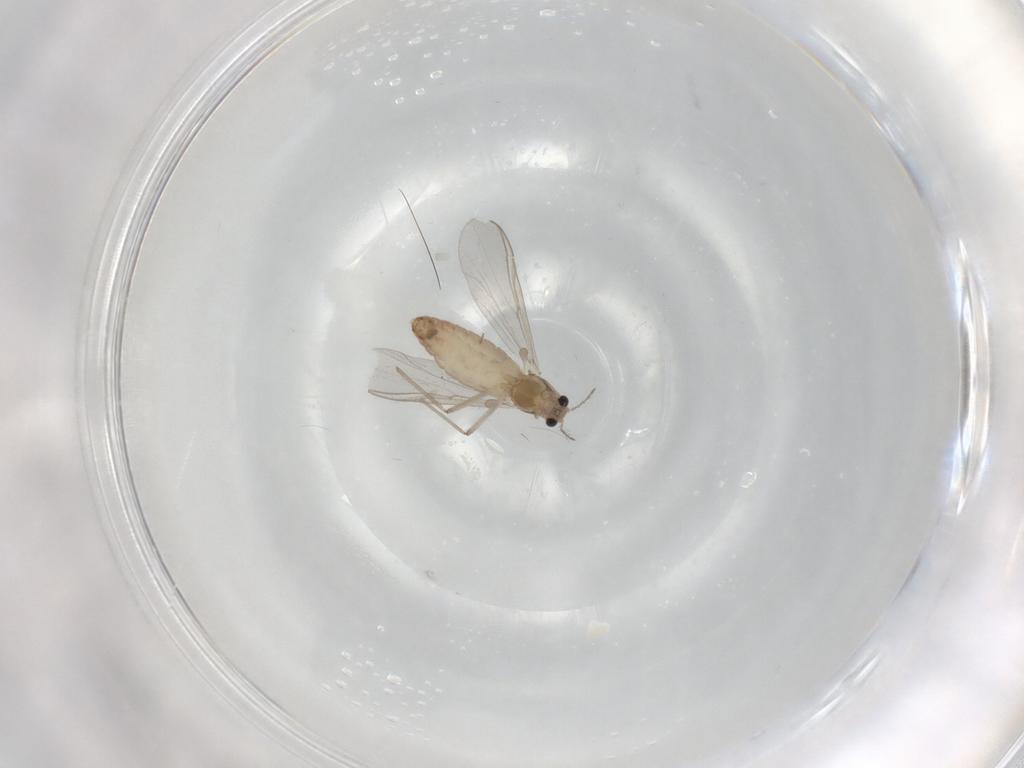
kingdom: Animalia
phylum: Arthropoda
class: Insecta
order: Diptera
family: Chironomidae
